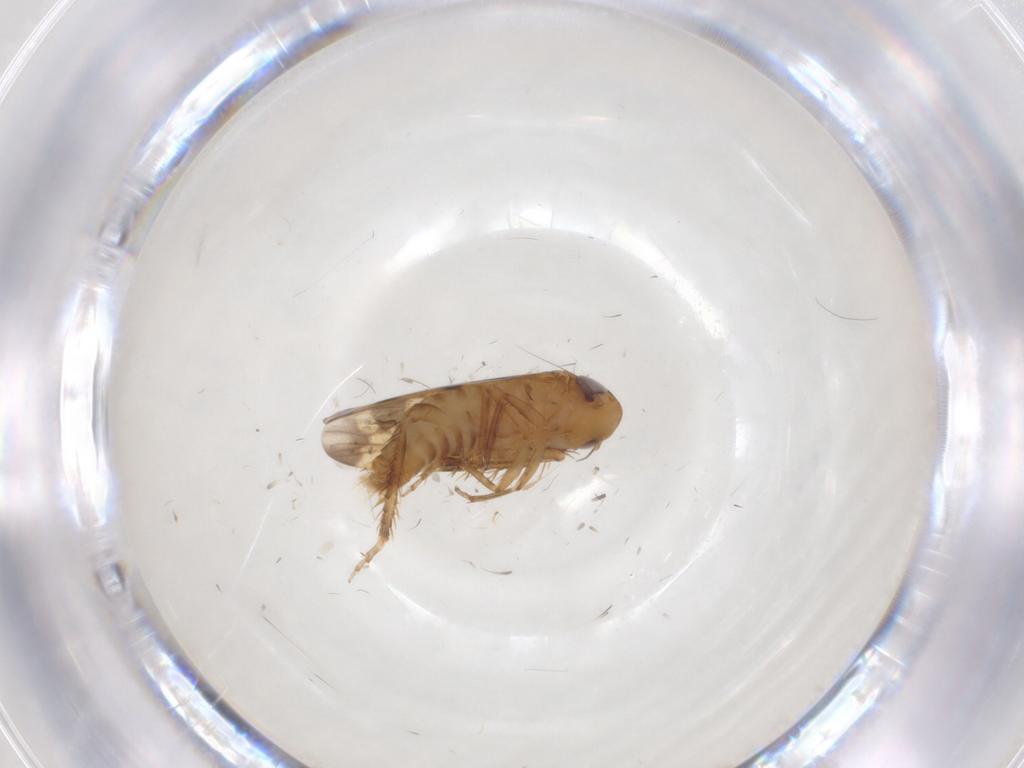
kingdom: Animalia
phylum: Arthropoda
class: Insecta
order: Hemiptera
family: Cicadellidae
